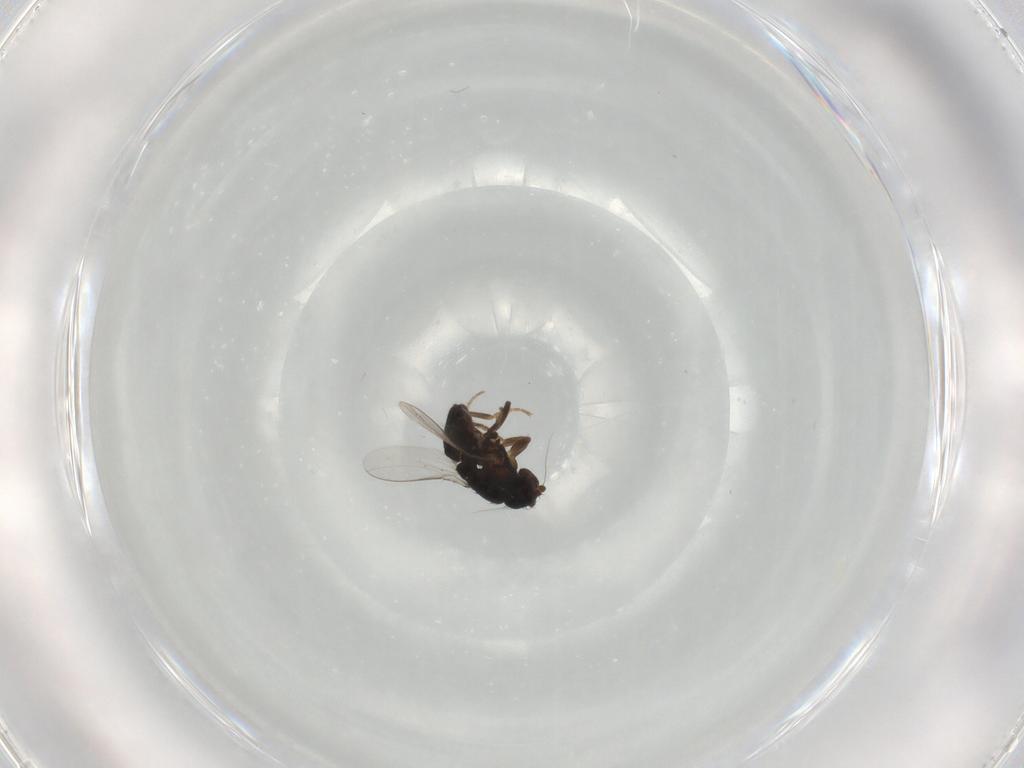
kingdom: Animalia
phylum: Arthropoda
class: Insecta
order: Diptera
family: Sphaeroceridae
